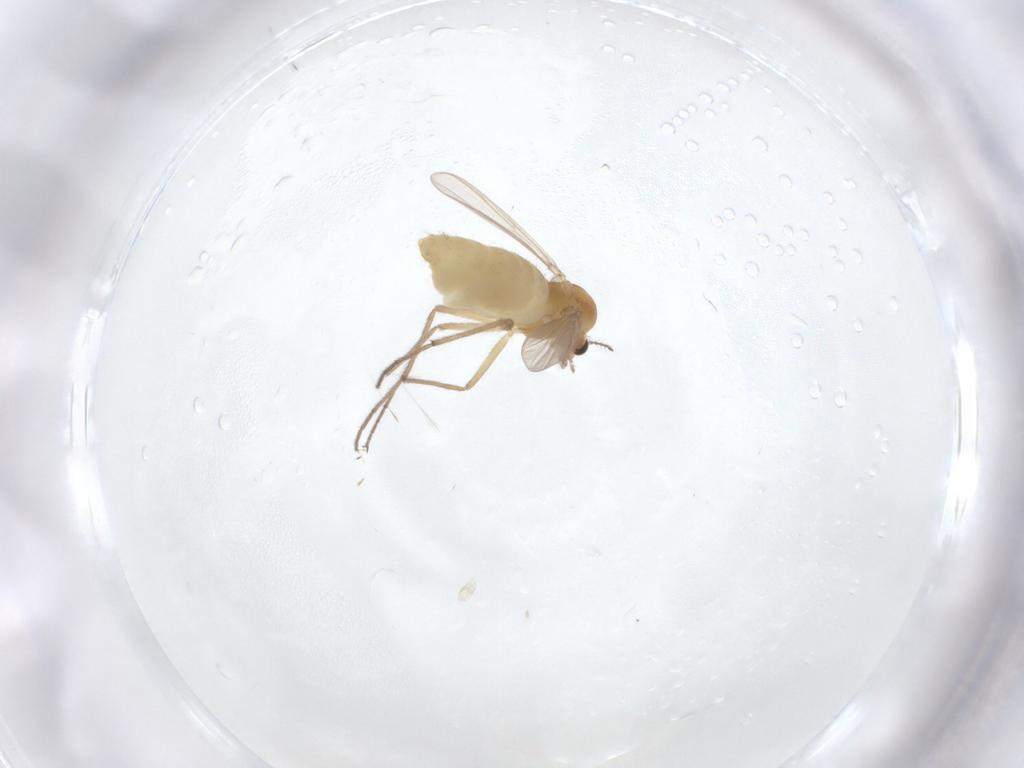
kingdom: Animalia
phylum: Arthropoda
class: Insecta
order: Diptera
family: Chironomidae
